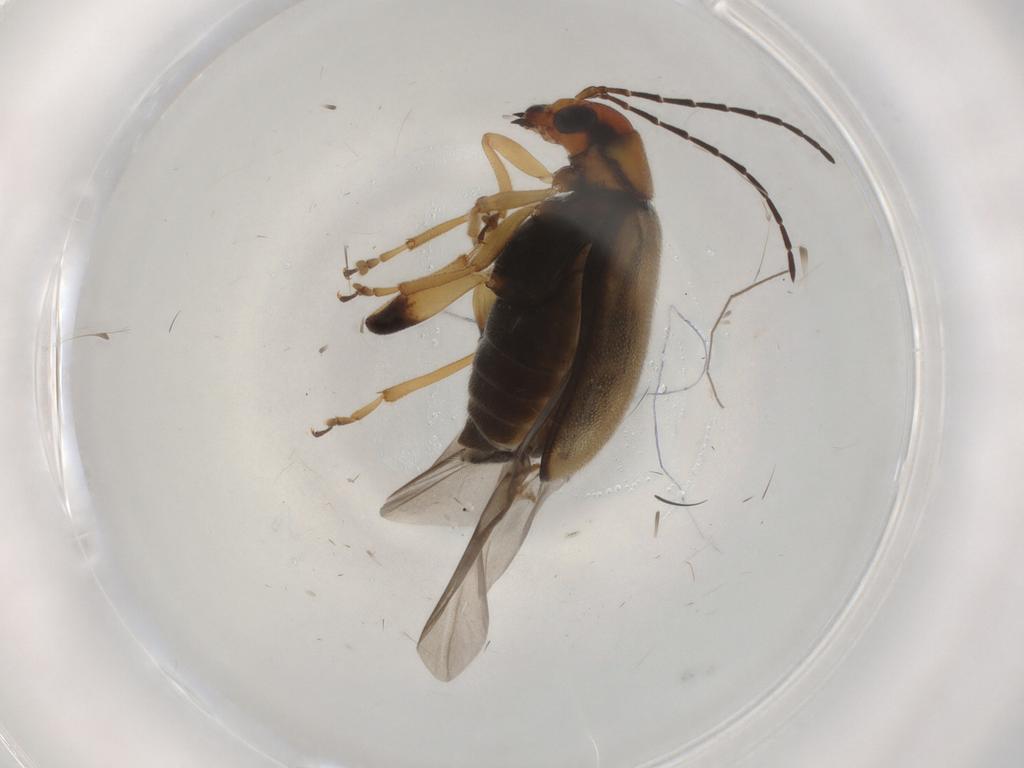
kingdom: Animalia
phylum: Arthropoda
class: Insecta
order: Coleoptera
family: Chrysomelidae
